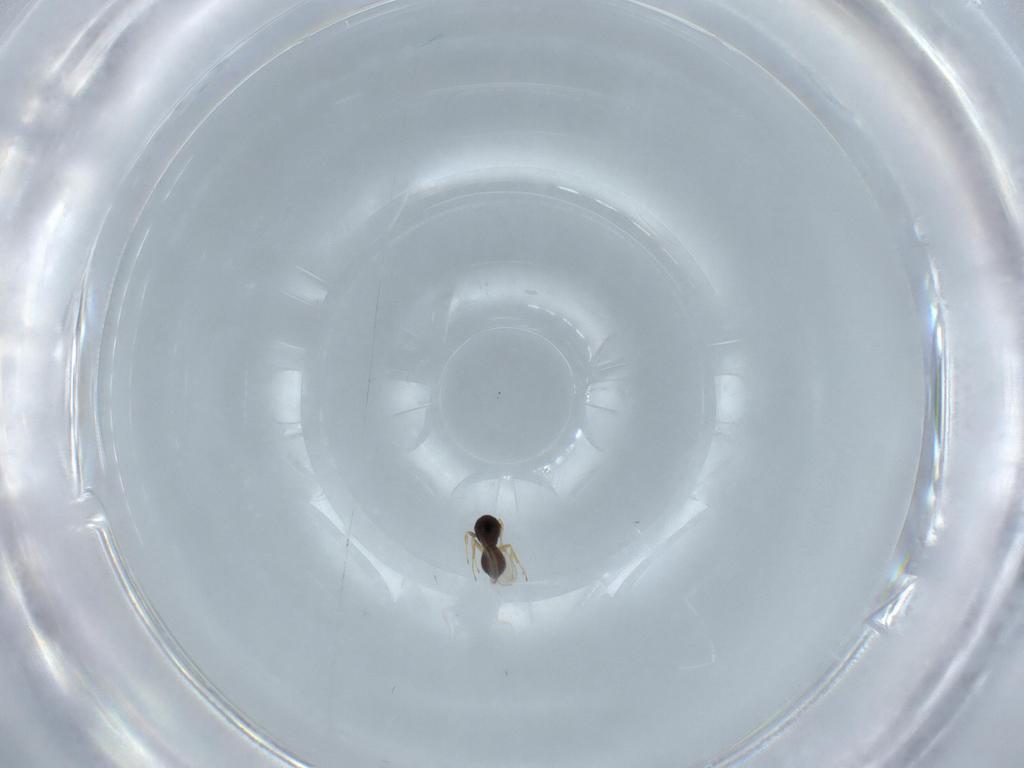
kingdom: Animalia
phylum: Arthropoda
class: Insecta
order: Hymenoptera
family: Scelionidae
